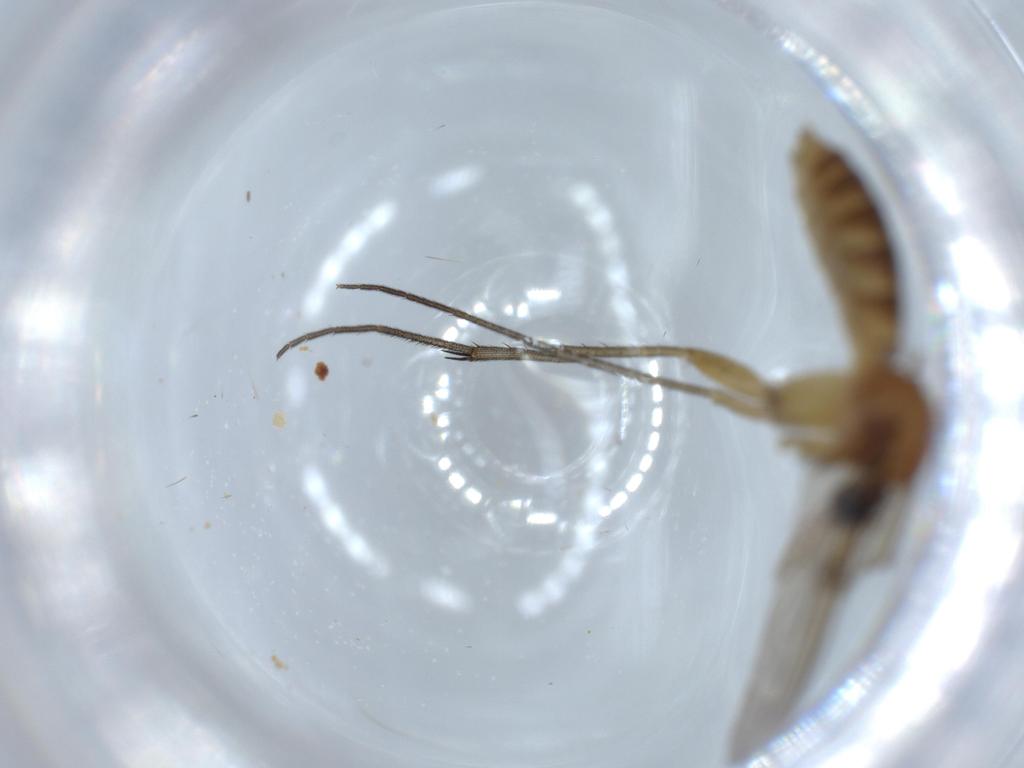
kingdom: Animalia
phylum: Arthropoda
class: Insecta
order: Diptera
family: Mycetophilidae
